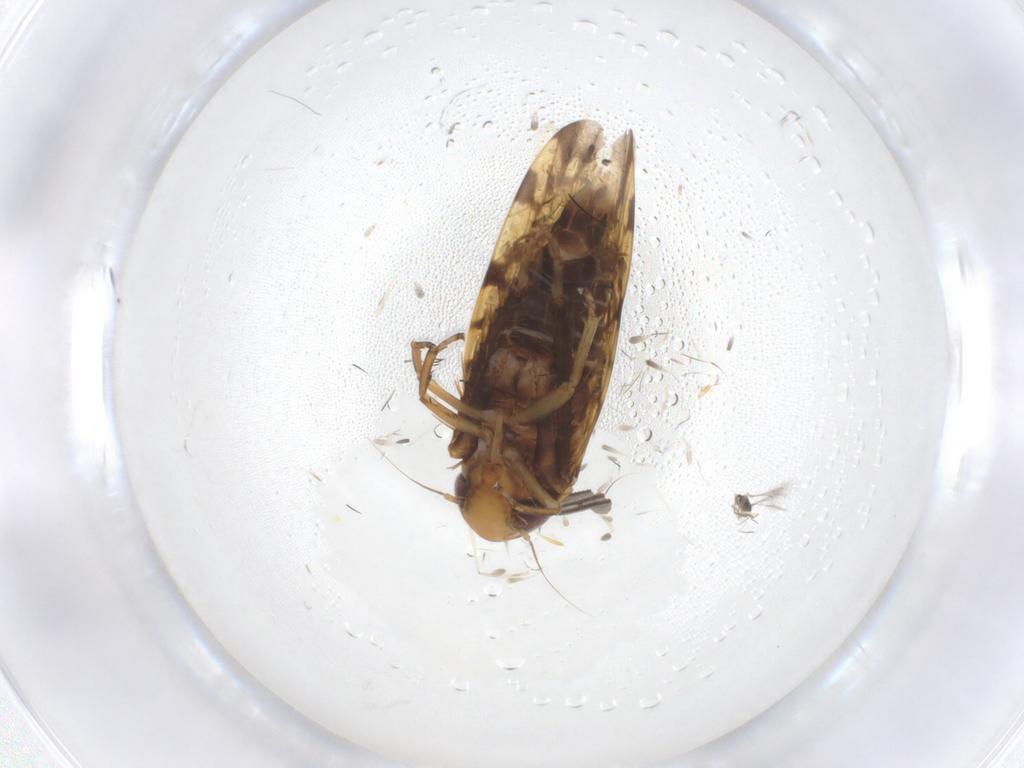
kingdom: Animalia
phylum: Arthropoda
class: Insecta
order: Hemiptera
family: Cicadellidae
